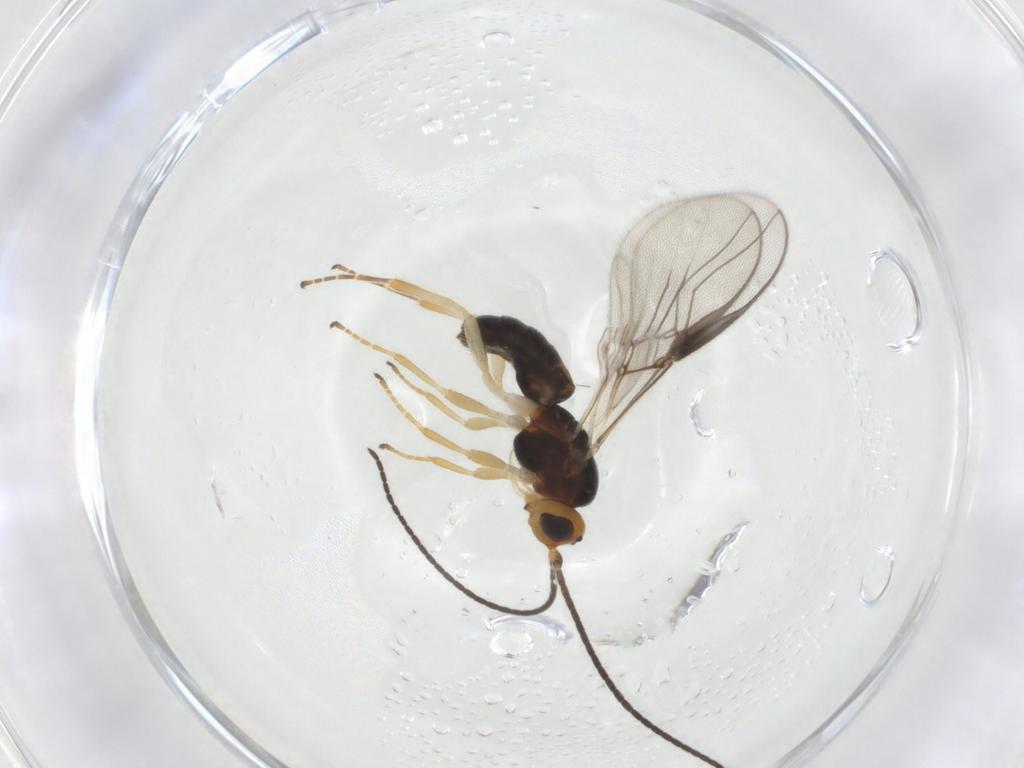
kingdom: Animalia
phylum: Arthropoda
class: Insecta
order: Hymenoptera
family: Braconidae
